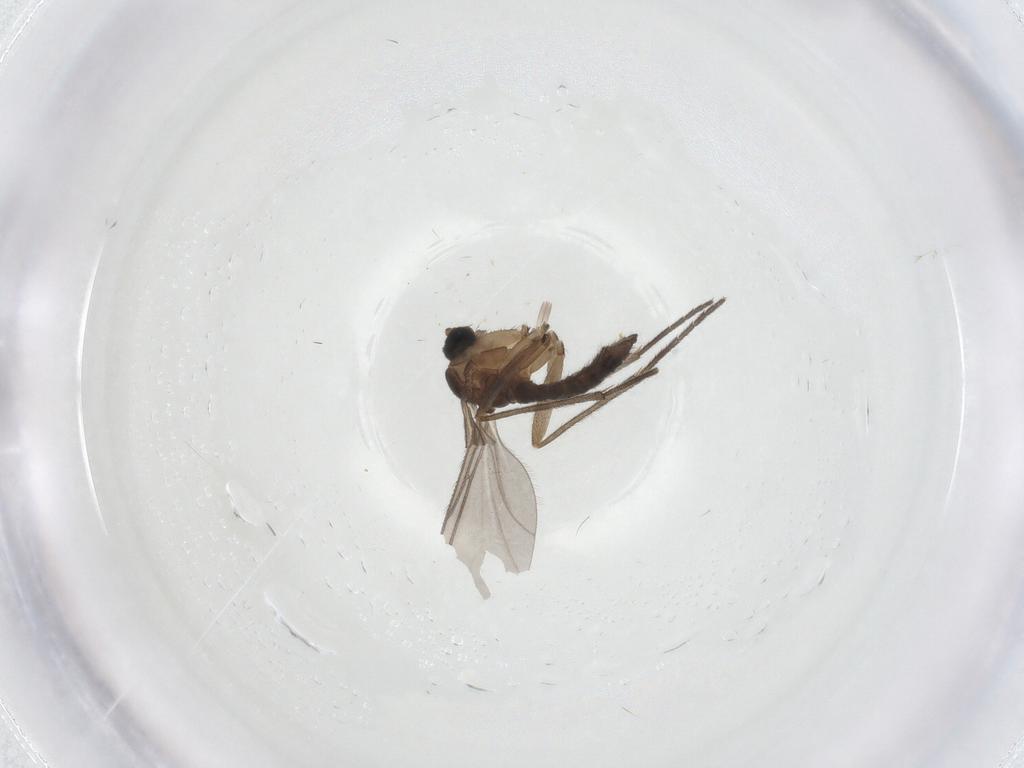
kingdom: Animalia
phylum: Arthropoda
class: Insecta
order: Diptera
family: Sciaridae
